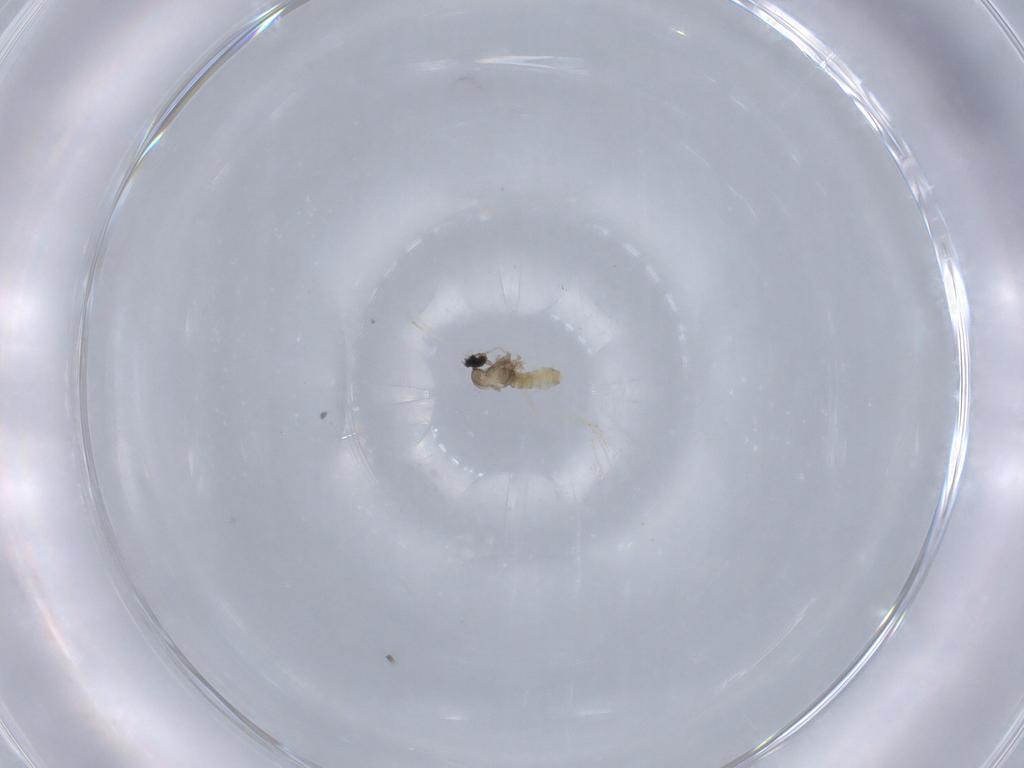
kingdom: Animalia
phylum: Arthropoda
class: Insecta
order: Diptera
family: Cecidomyiidae
